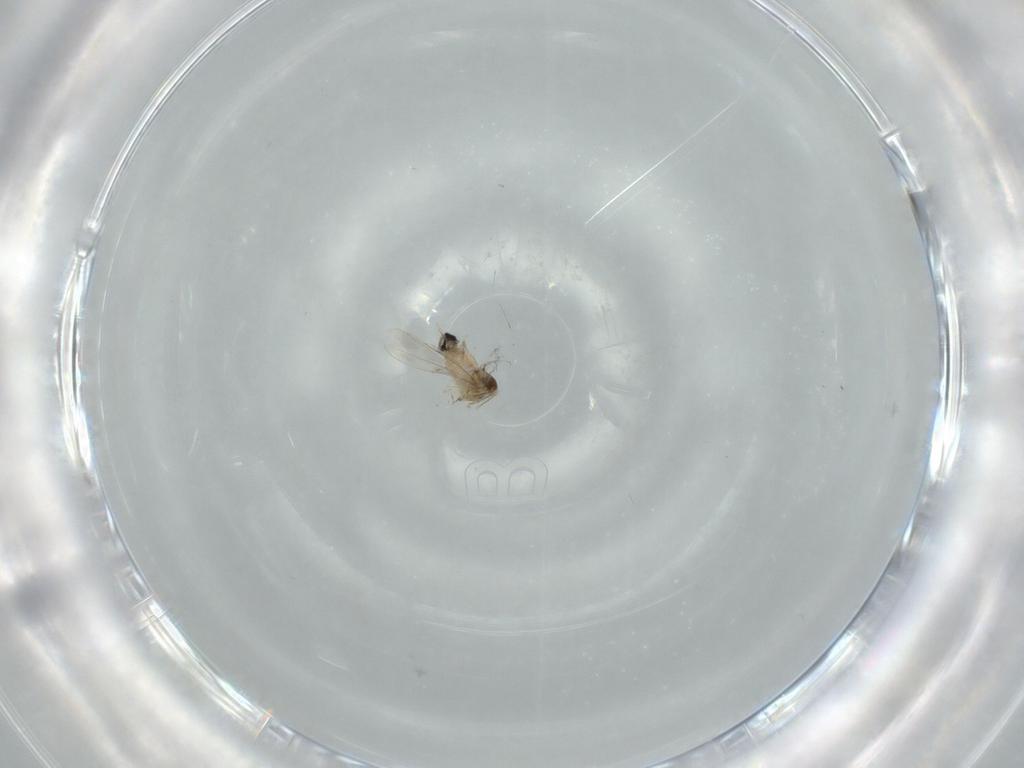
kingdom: Animalia
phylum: Arthropoda
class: Insecta
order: Diptera
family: Cecidomyiidae
